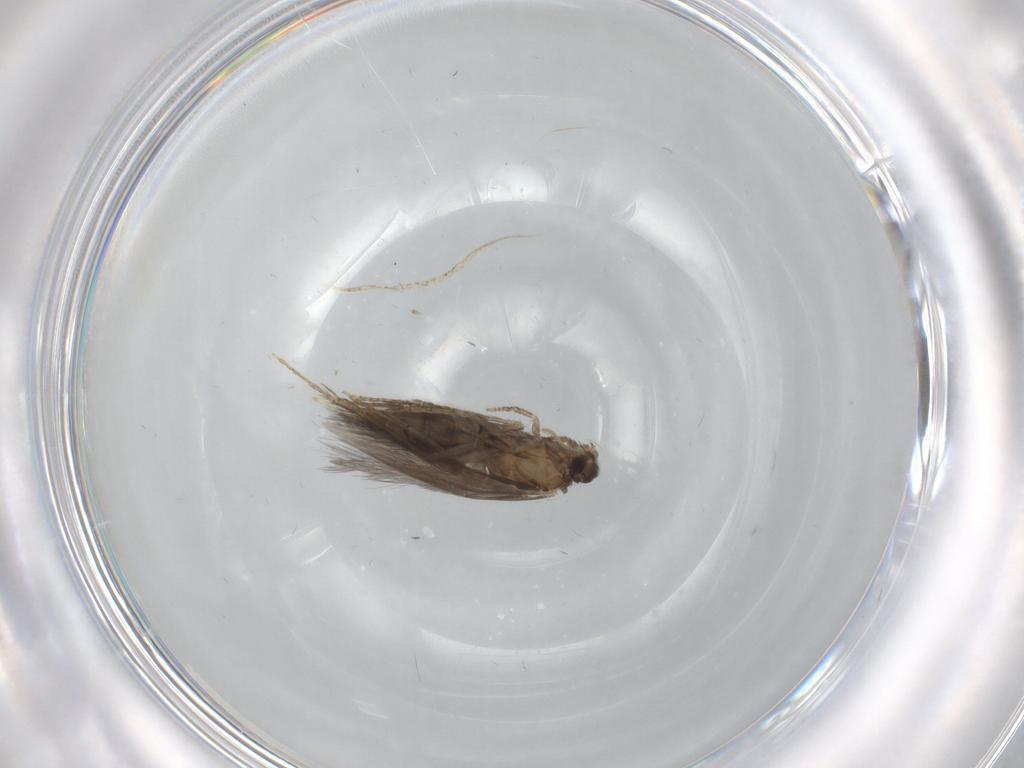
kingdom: Animalia
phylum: Arthropoda
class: Insecta
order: Trichoptera
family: Hydroptilidae
